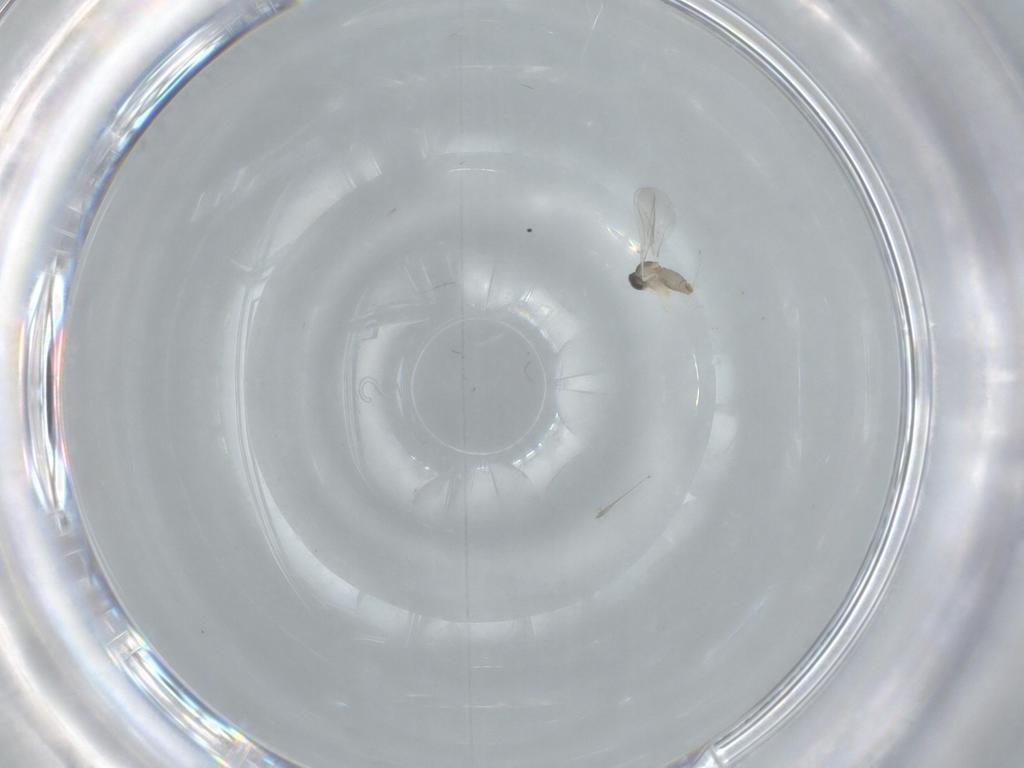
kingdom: Animalia
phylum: Arthropoda
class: Insecta
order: Diptera
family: Cecidomyiidae
